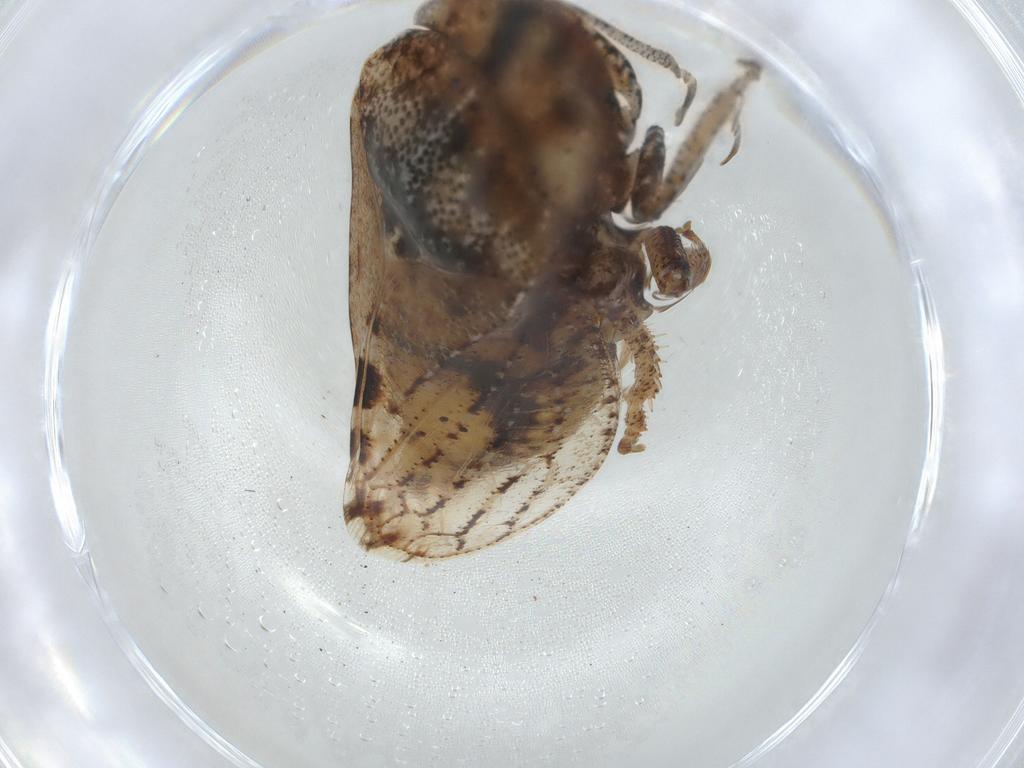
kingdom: Animalia
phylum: Arthropoda
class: Insecta
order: Hemiptera
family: Cicadellidae
